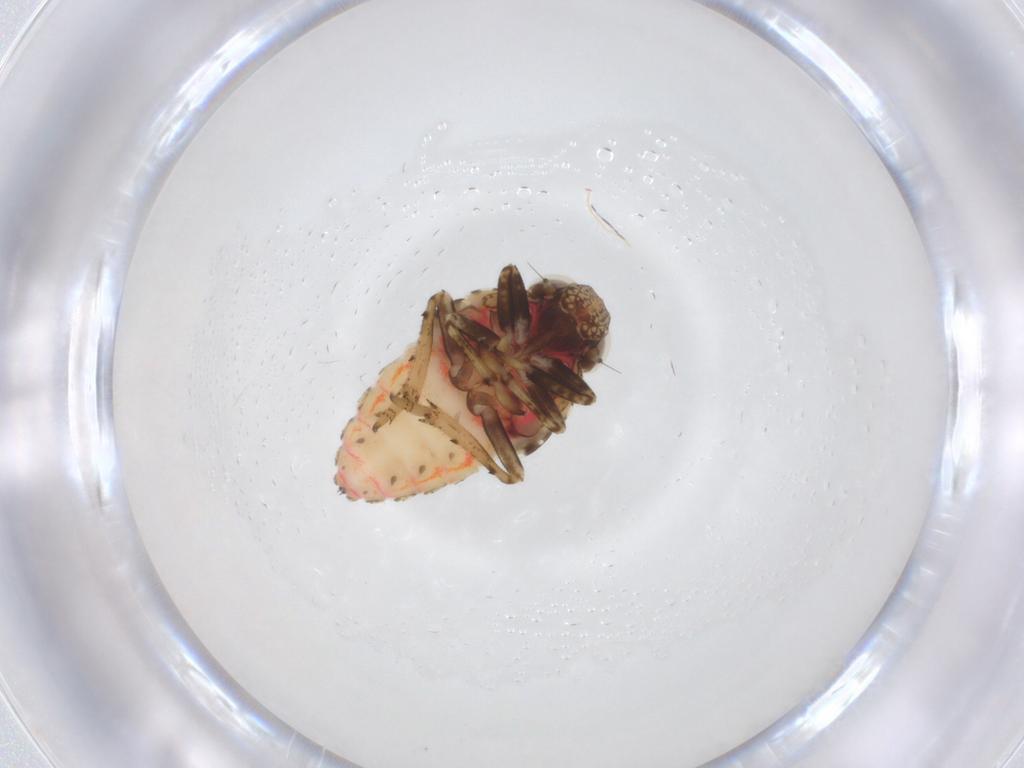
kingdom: Animalia
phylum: Arthropoda
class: Insecta
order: Hemiptera
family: Issidae
